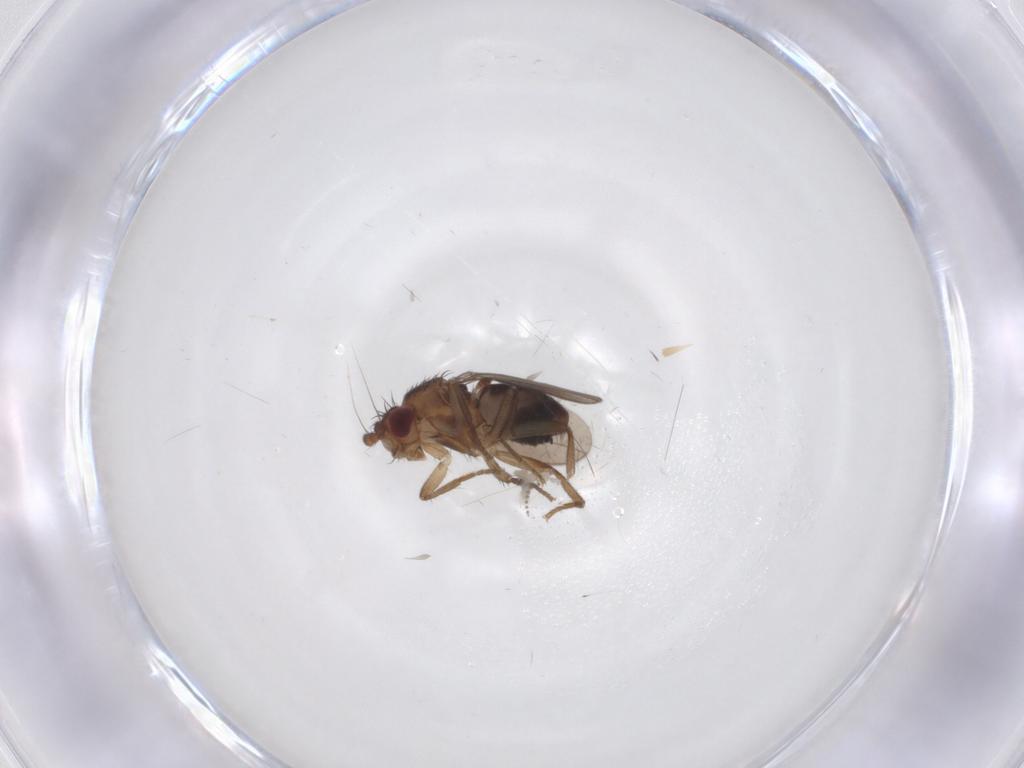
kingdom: Animalia
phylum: Arthropoda
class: Insecta
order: Diptera
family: Sphaeroceridae
